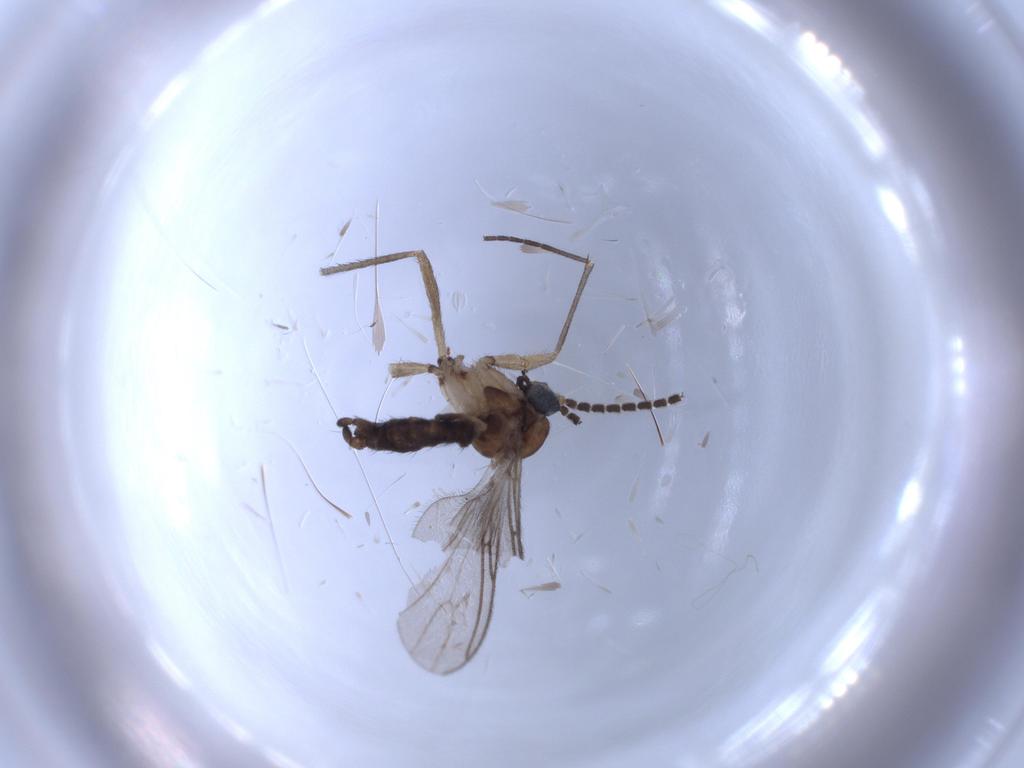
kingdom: Animalia
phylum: Arthropoda
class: Insecta
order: Diptera
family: Sciaridae
